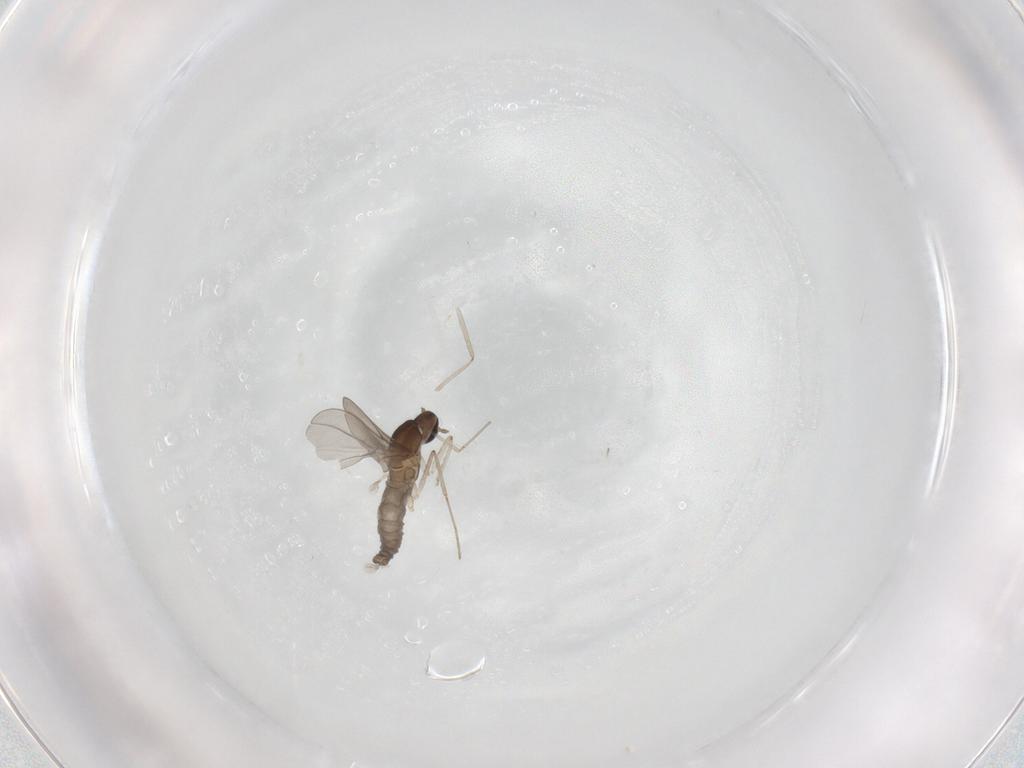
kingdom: Animalia
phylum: Arthropoda
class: Insecta
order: Diptera
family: Cecidomyiidae
